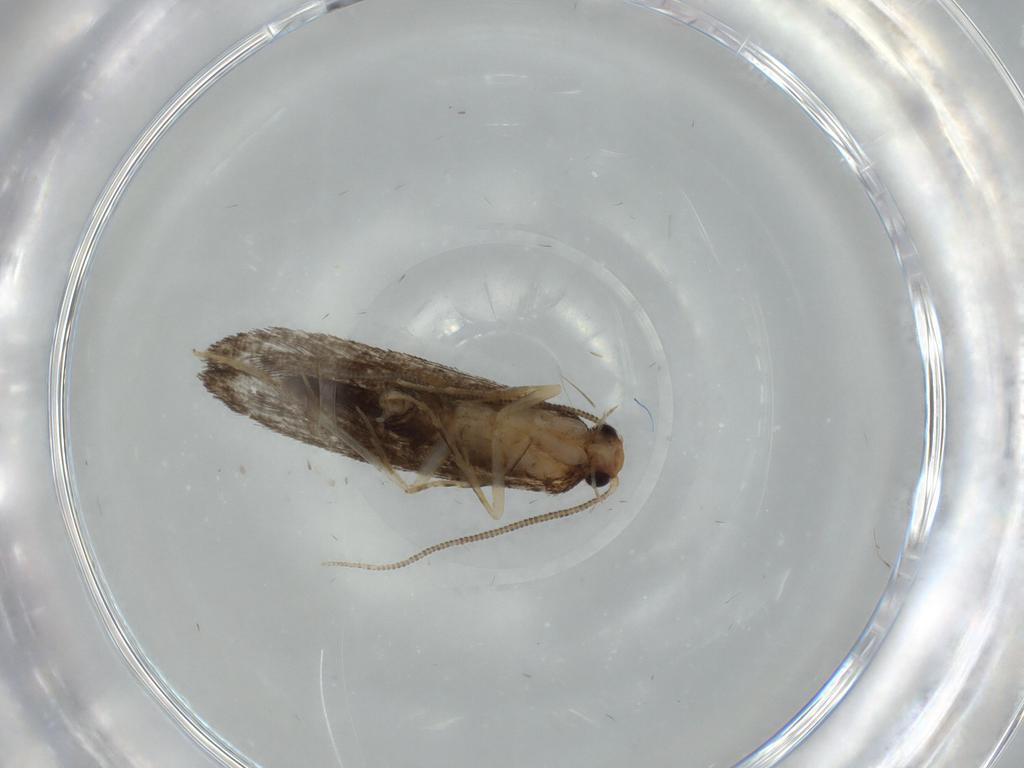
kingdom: Animalia
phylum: Arthropoda
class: Insecta
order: Lepidoptera
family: Tineidae
